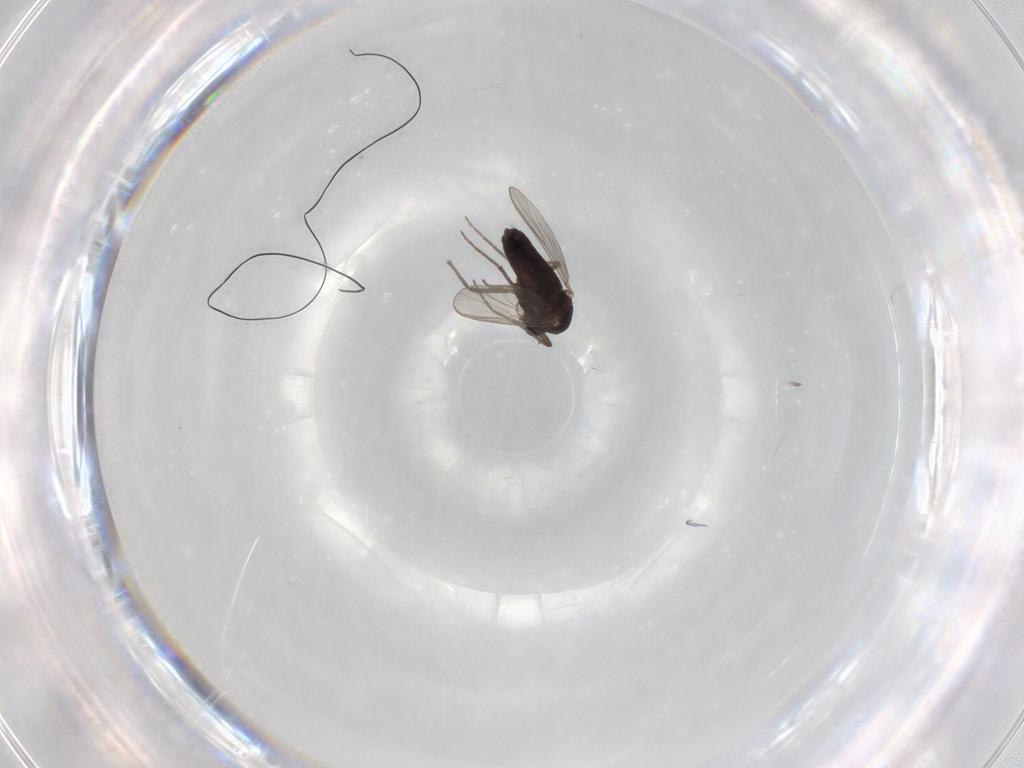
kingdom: Animalia
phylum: Arthropoda
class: Insecta
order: Diptera
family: Chironomidae
